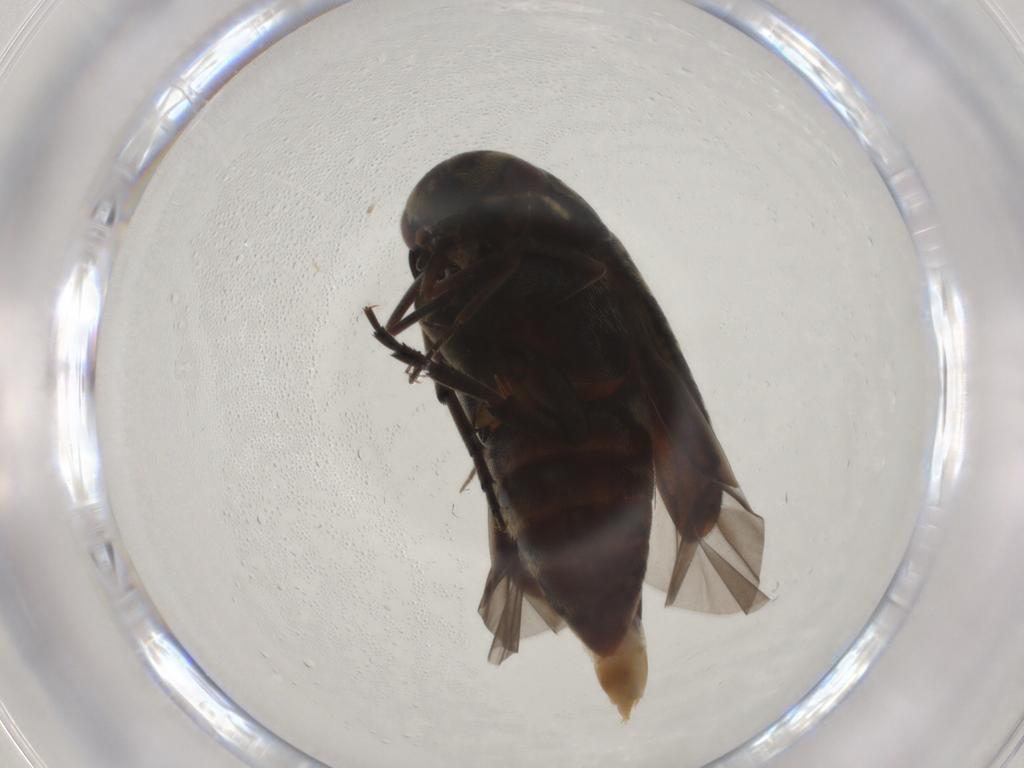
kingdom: Animalia
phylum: Arthropoda
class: Insecta
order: Coleoptera
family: Mordellidae
